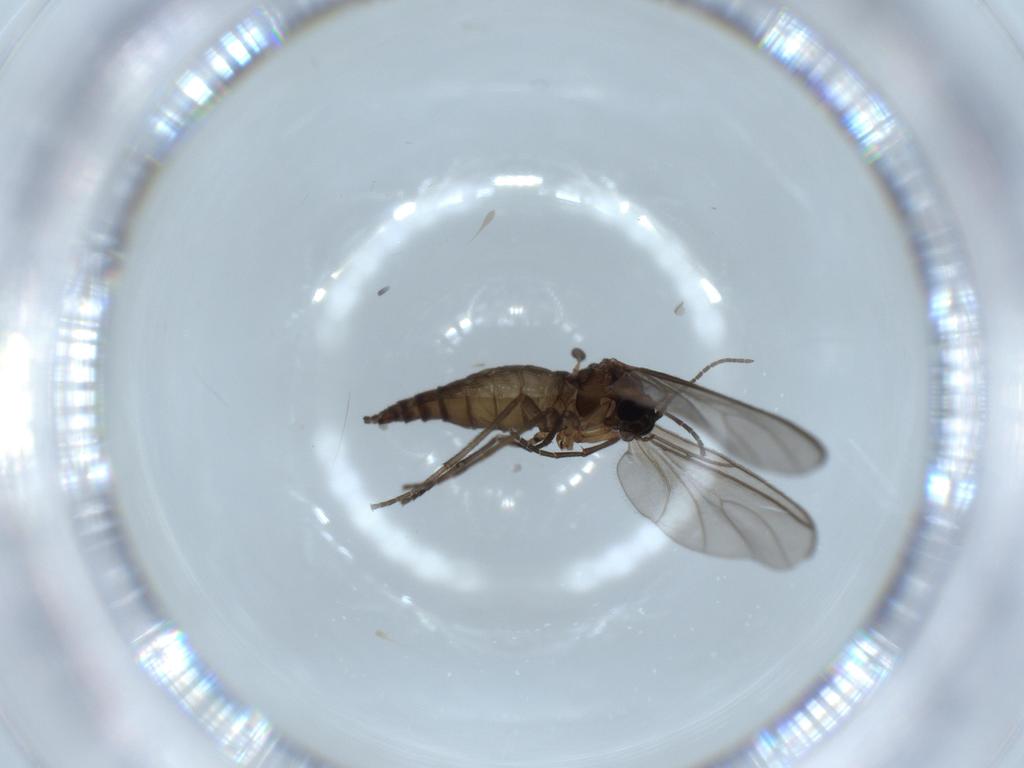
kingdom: Animalia
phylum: Arthropoda
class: Insecta
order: Diptera
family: Sciaridae
